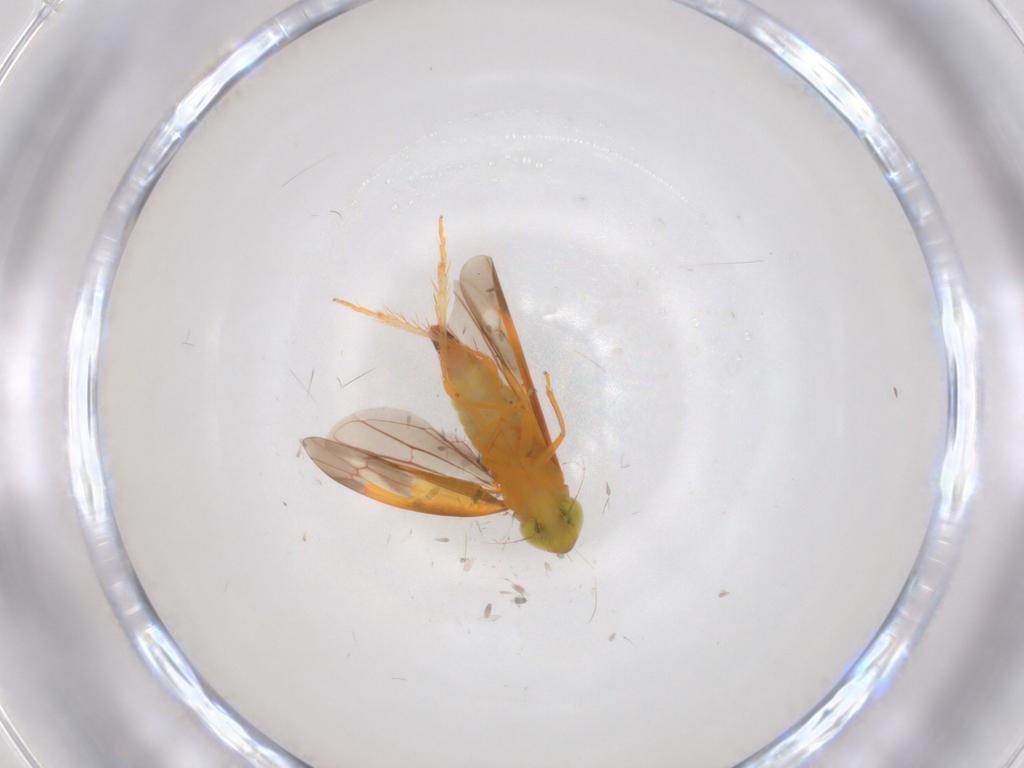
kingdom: Animalia
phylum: Arthropoda
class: Insecta
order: Hemiptera
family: Cicadellidae
